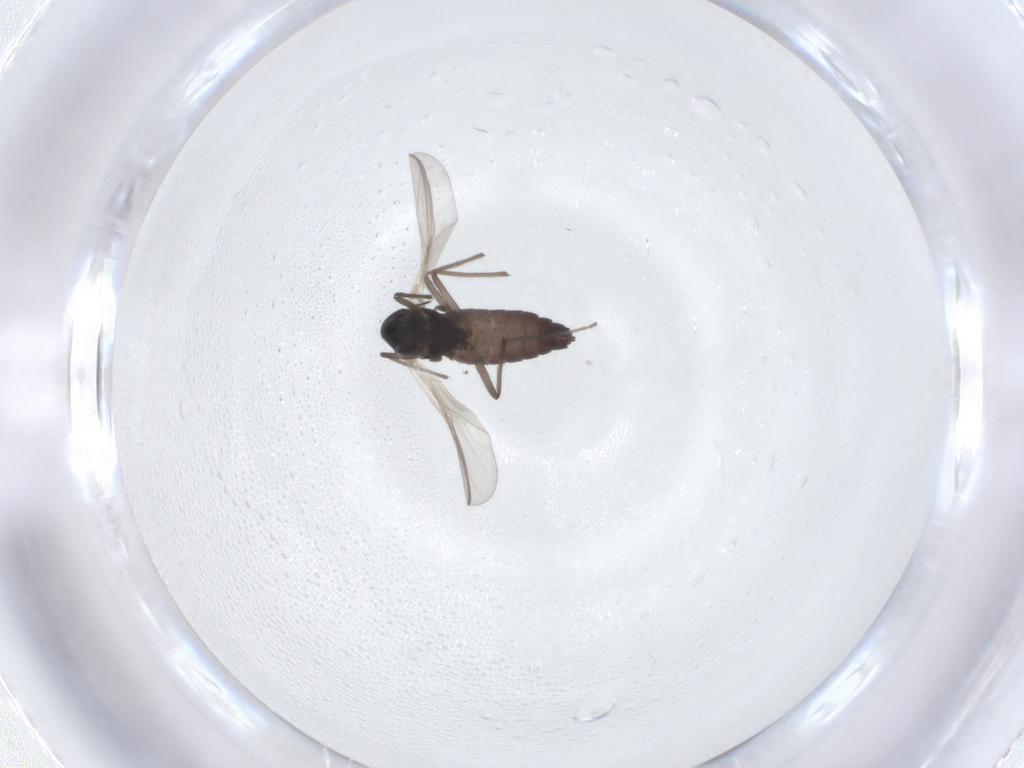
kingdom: Animalia
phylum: Arthropoda
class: Insecta
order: Diptera
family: Chironomidae
